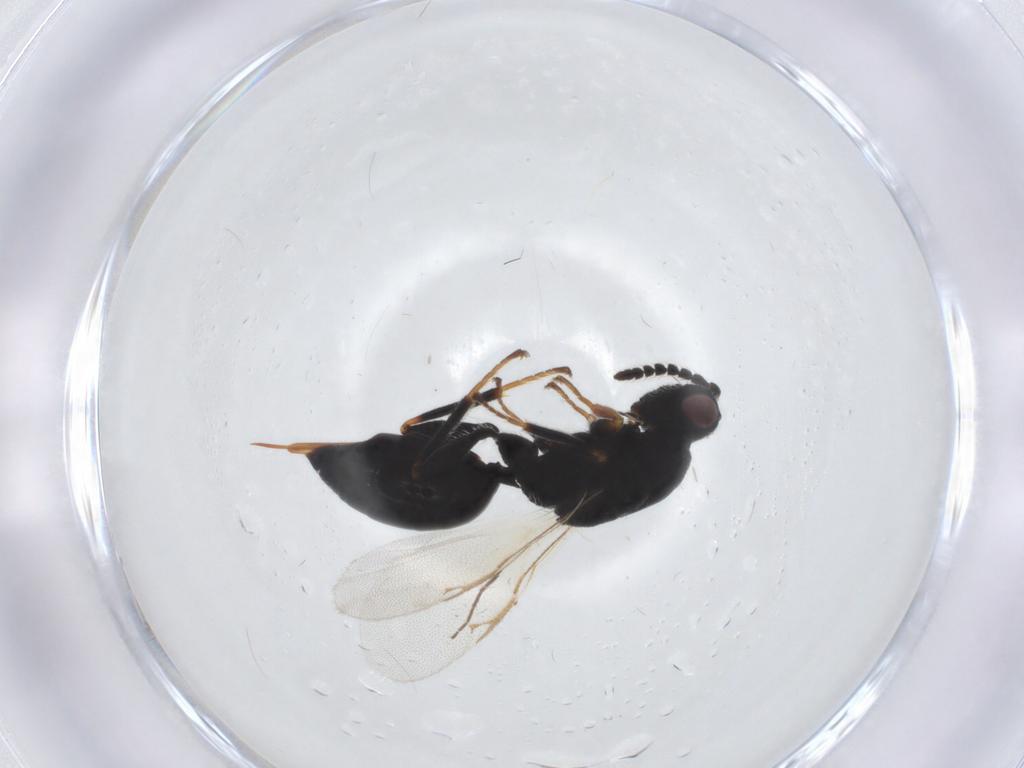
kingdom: Animalia
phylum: Arthropoda
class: Insecta
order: Hymenoptera
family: Eurytomidae
